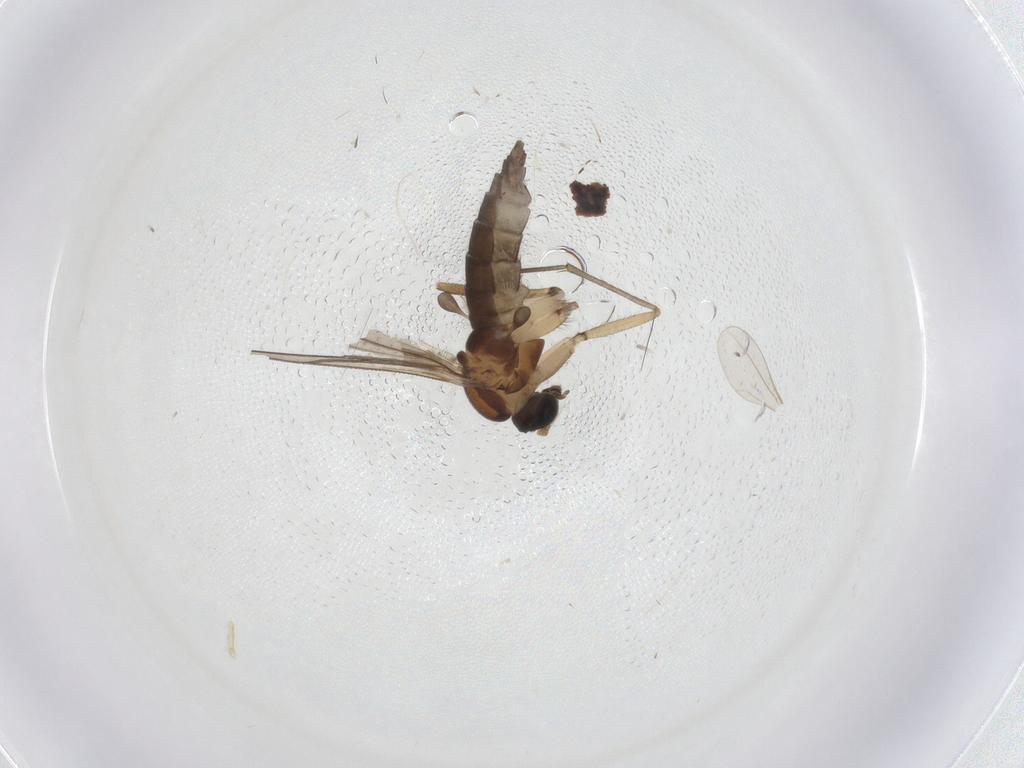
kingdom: Animalia
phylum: Arthropoda
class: Insecta
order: Diptera
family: Sciaridae
